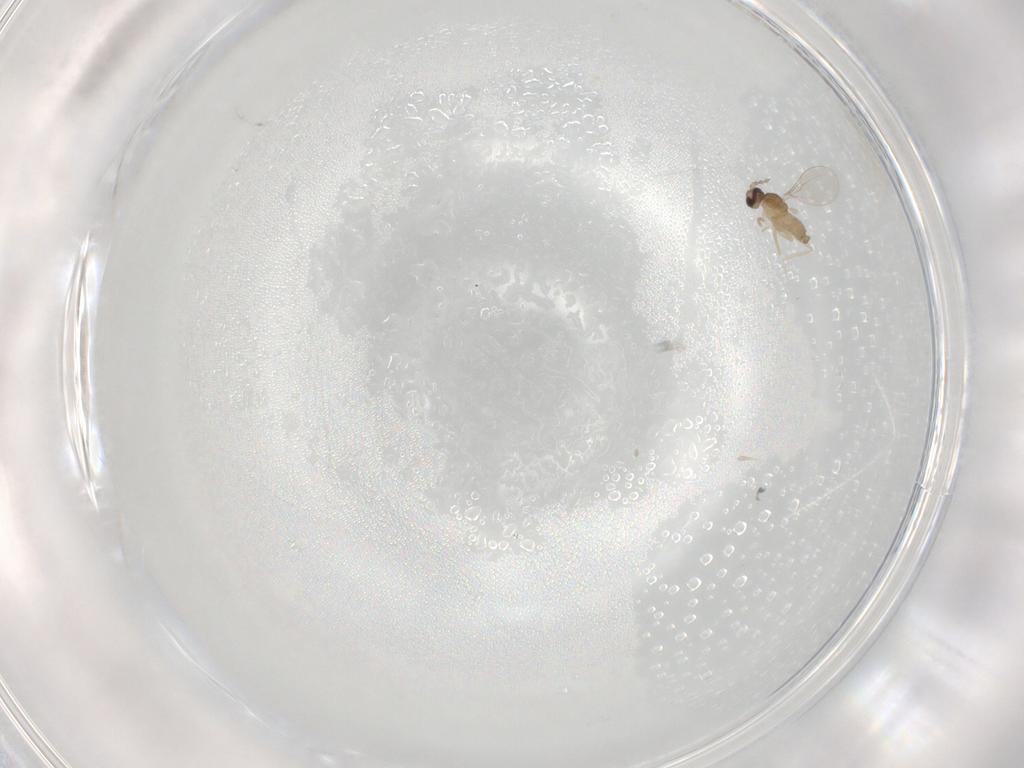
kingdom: Animalia
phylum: Arthropoda
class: Insecta
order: Diptera
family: Cecidomyiidae
